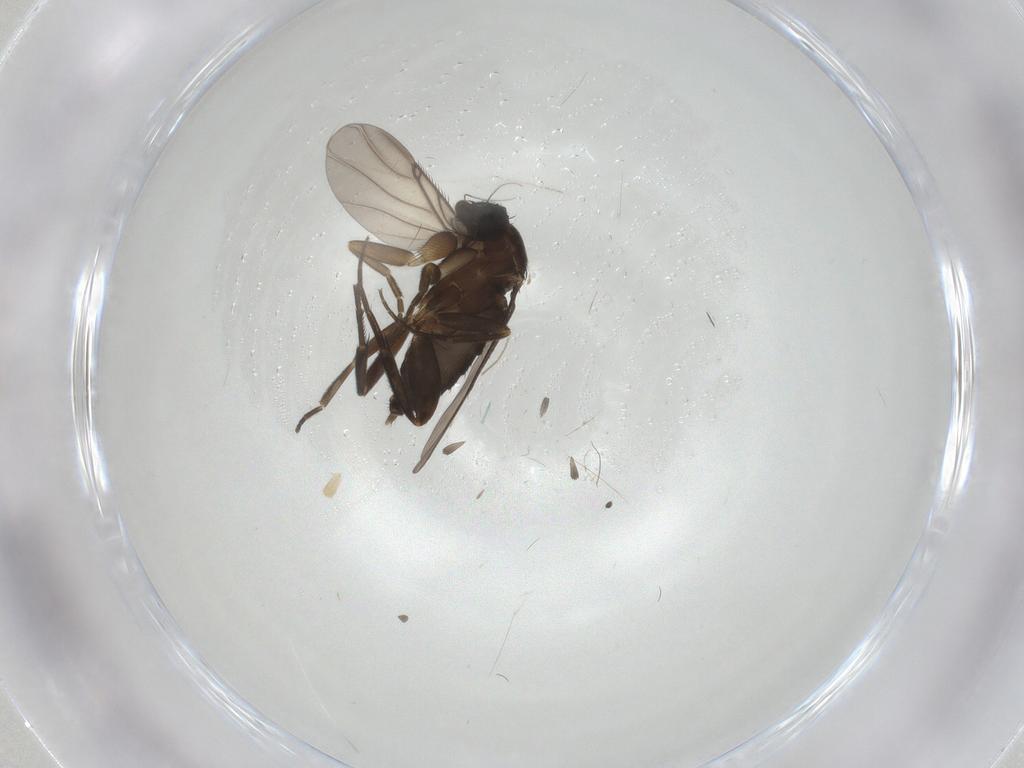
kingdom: Animalia
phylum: Arthropoda
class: Insecta
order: Diptera
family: Phoridae
